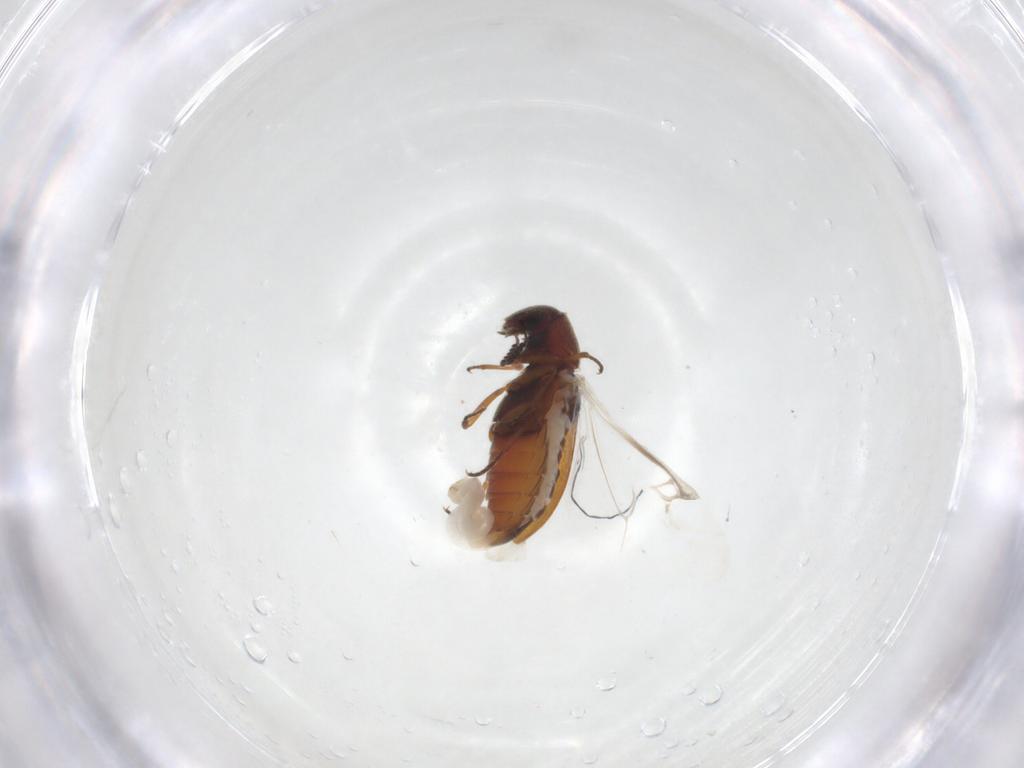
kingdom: Animalia
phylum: Arthropoda
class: Insecta
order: Coleoptera
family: Rhadalidae
